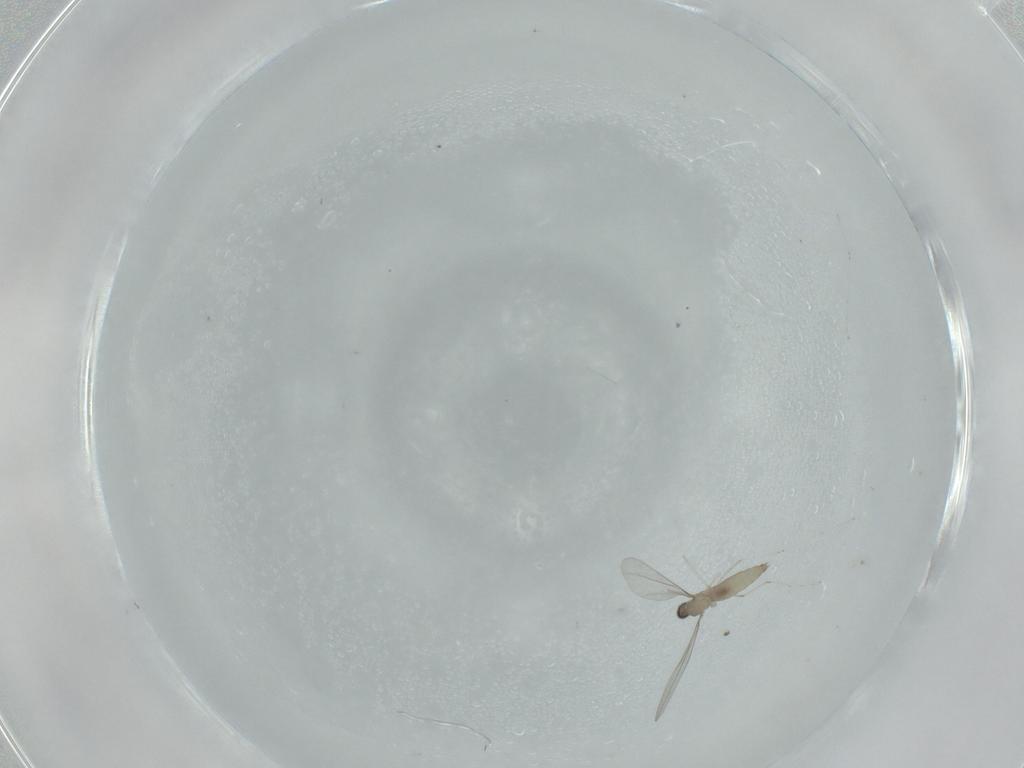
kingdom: Animalia
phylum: Arthropoda
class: Insecta
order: Diptera
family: Cecidomyiidae
